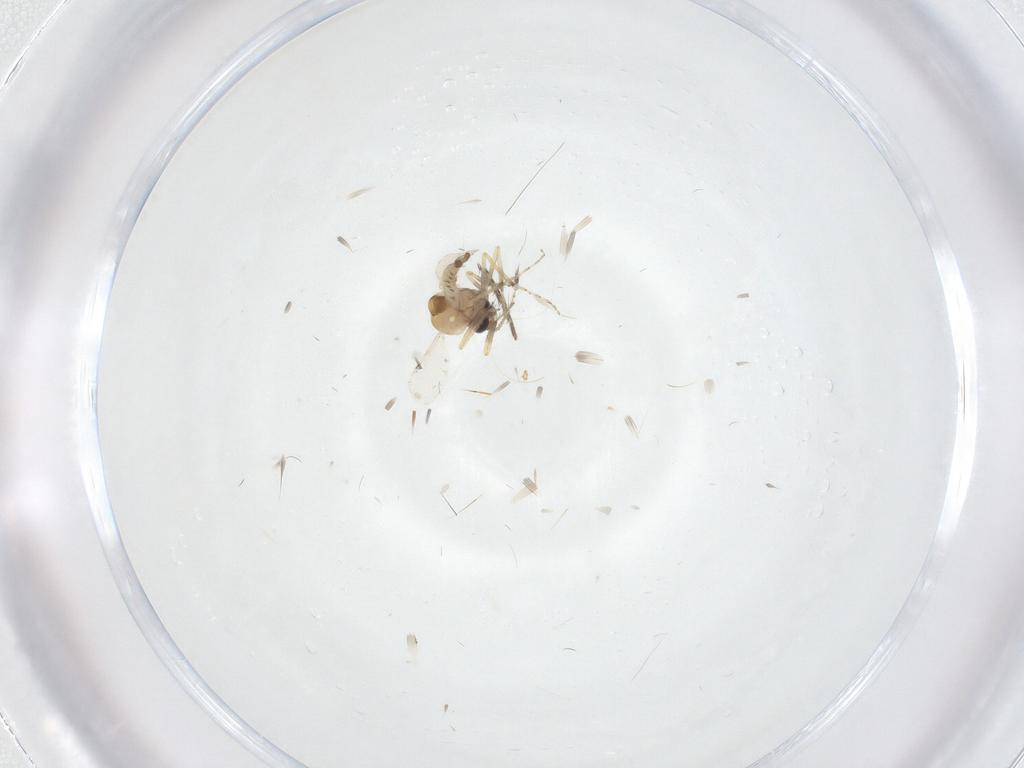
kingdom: Animalia
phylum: Arthropoda
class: Insecta
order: Diptera
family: Ceratopogonidae
